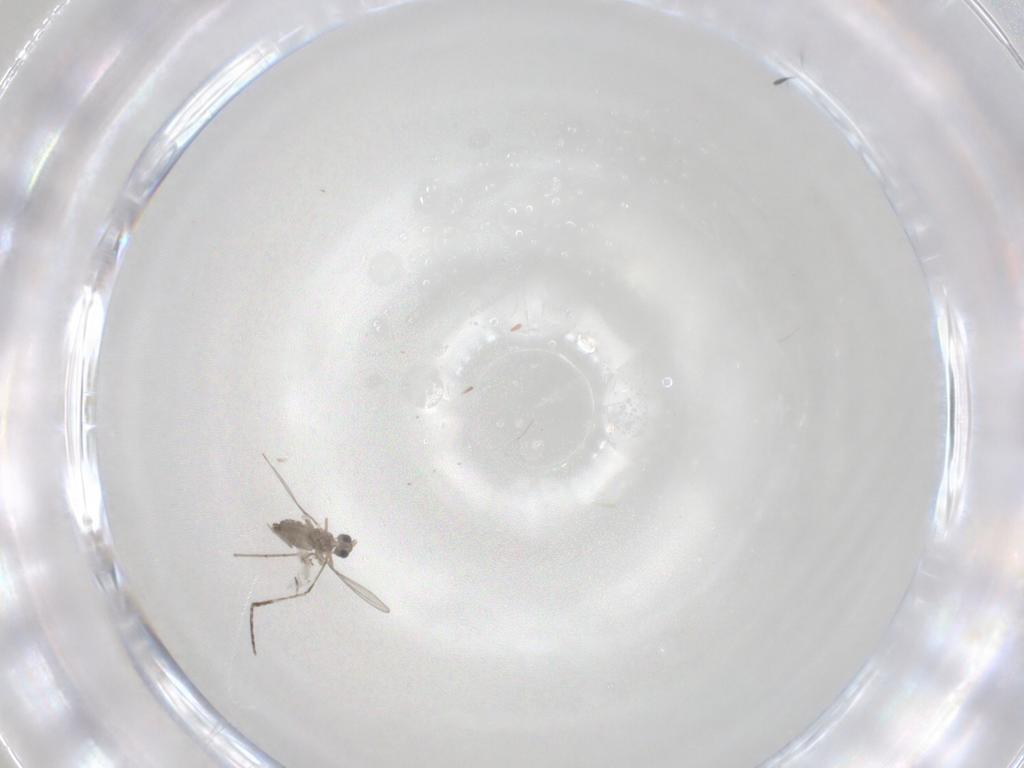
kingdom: Animalia
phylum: Arthropoda
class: Insecta
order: Diptera
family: Cecidomyiidae
